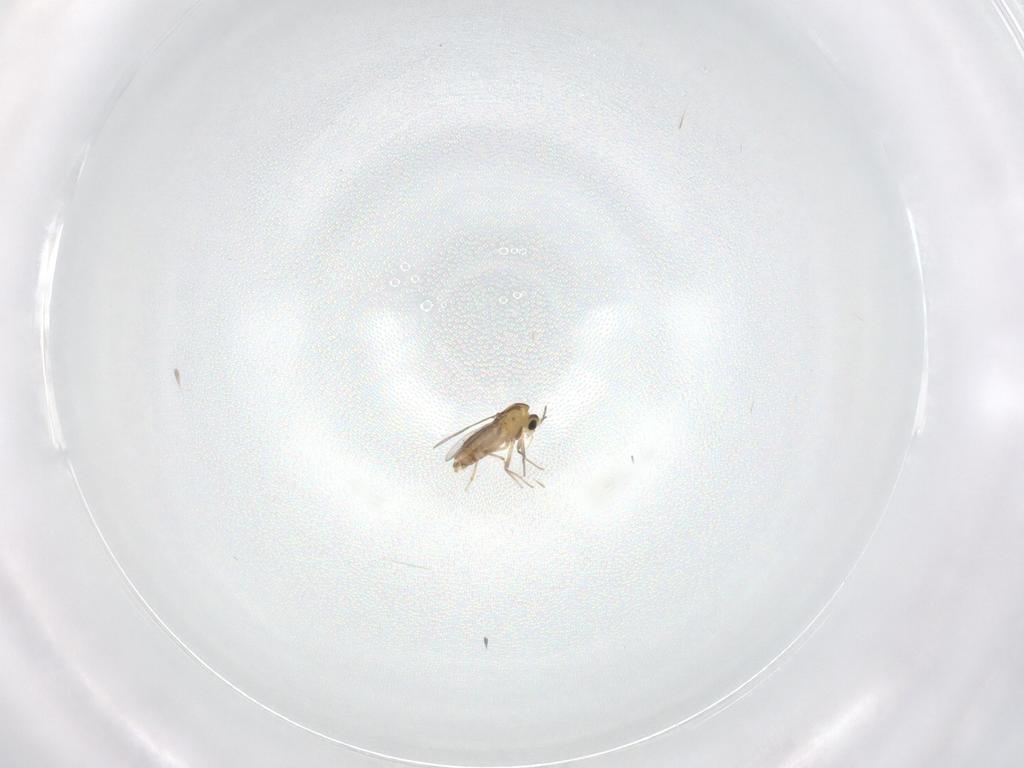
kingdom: Animalia
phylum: Arthropoda
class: Insecta
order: Diptera
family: Chironomidae
